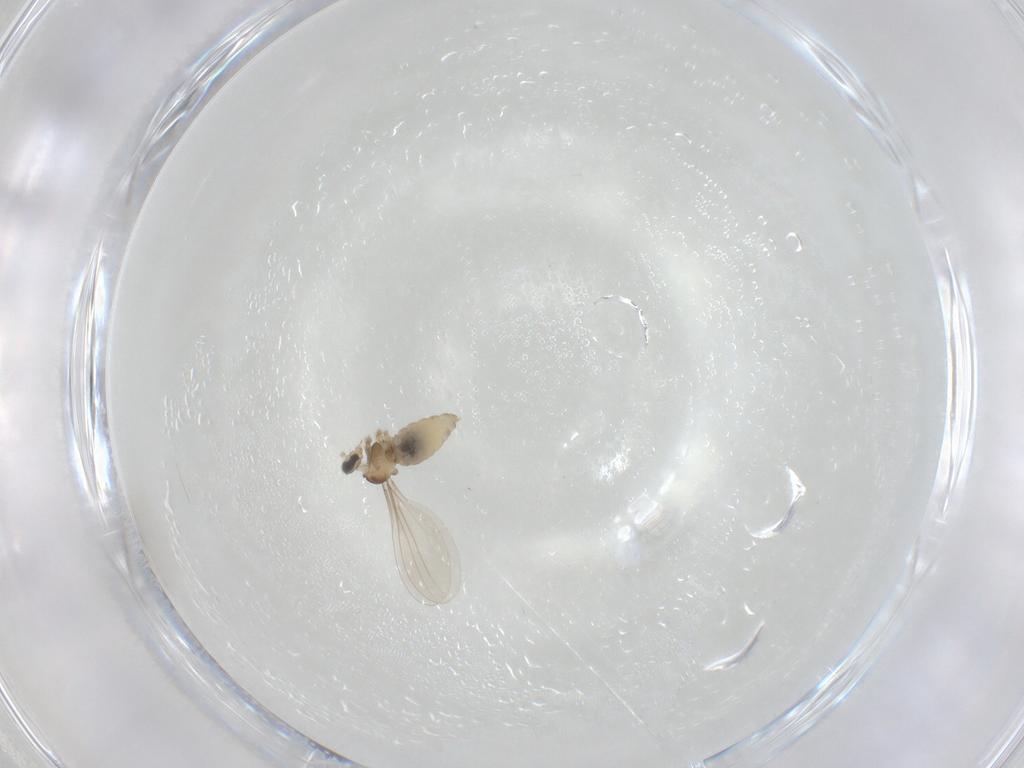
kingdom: Animalia
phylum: Arthropoda
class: Insecta
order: Diptera
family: Cecidomyiidae
